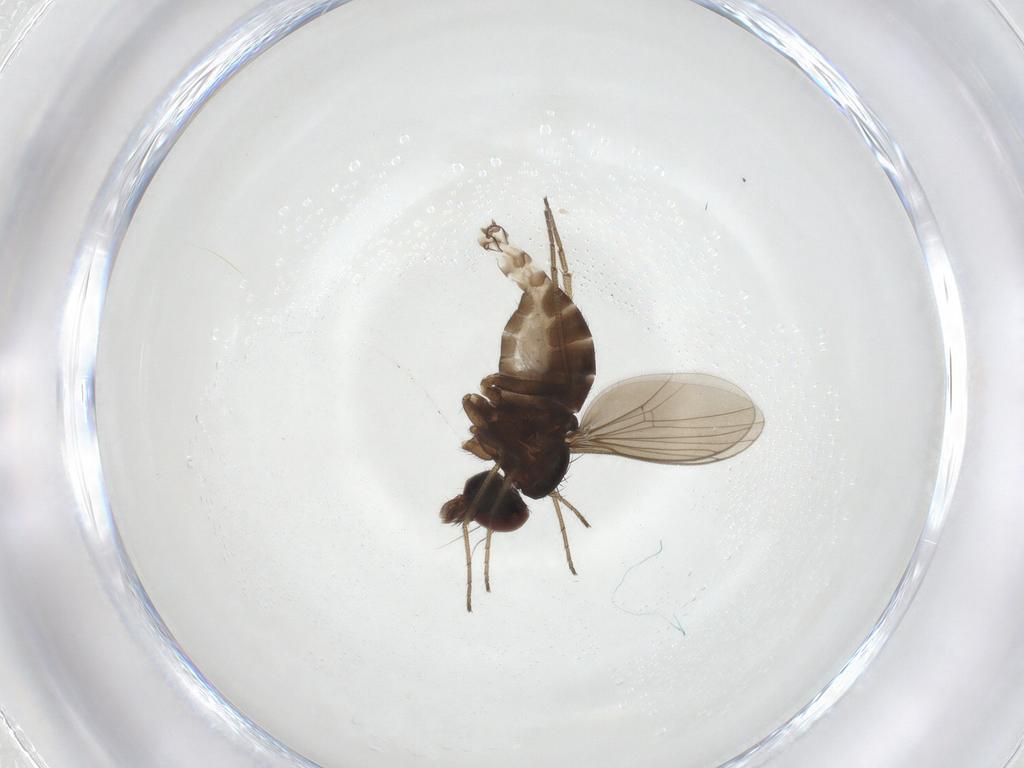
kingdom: Animalia
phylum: Arthropoda
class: Insecta
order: Diptera
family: Dolichopodidae
